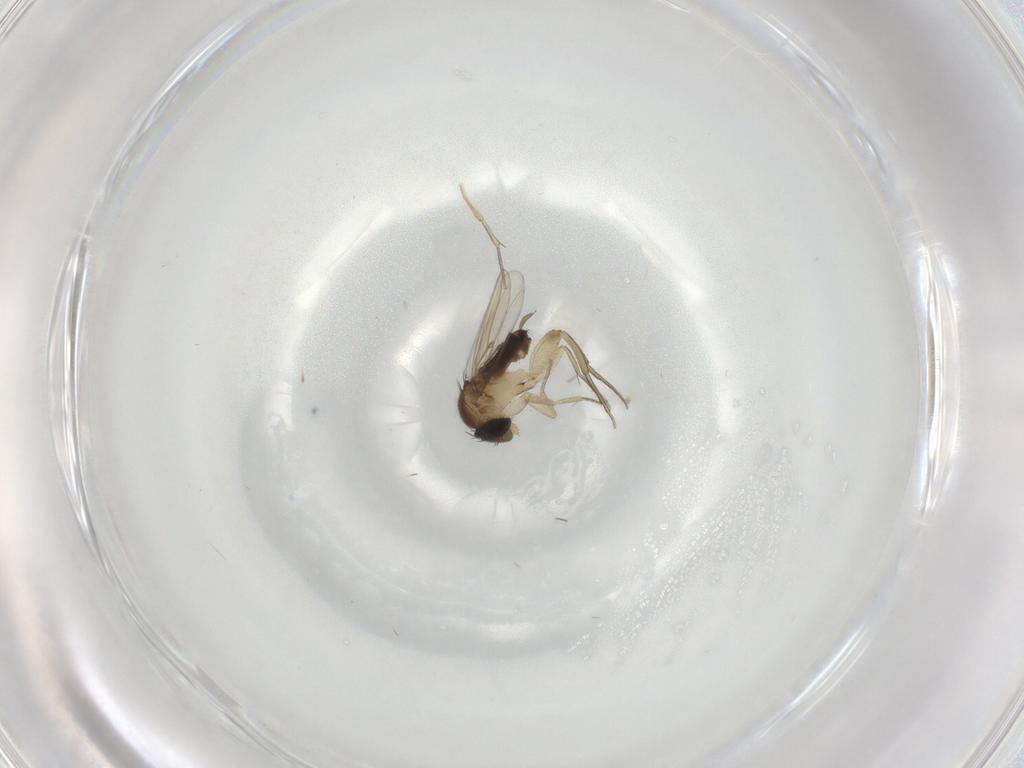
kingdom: Animalia
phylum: Arthropoda
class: Insecta
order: Diptera
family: Cecidomyiidae
